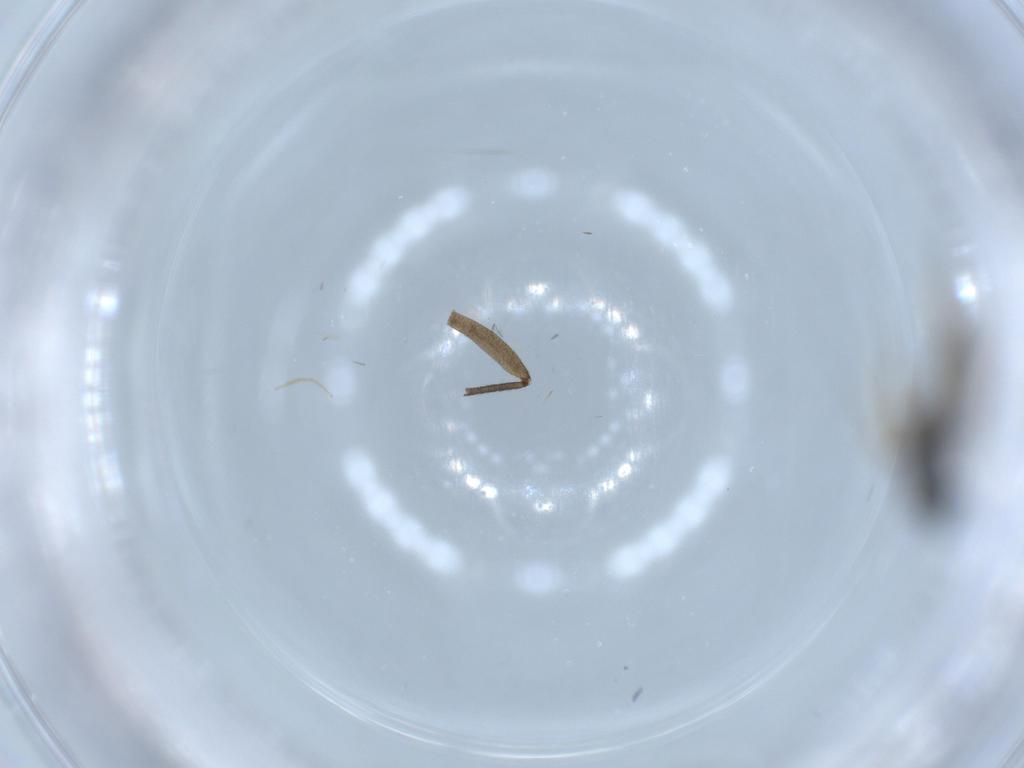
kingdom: Animalia
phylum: Arthropoda
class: Insecta
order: Hymenoptera
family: Scelionidae
